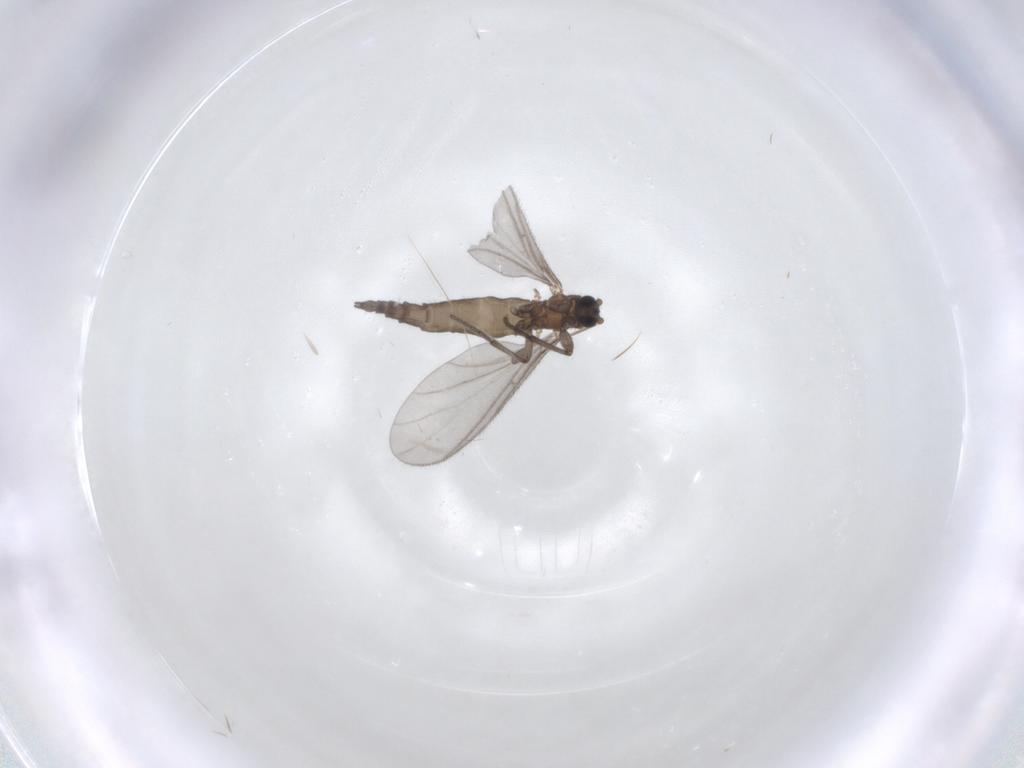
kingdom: Animalia
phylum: Arthropoda
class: Insecta
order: Diptera
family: Sciaridae
